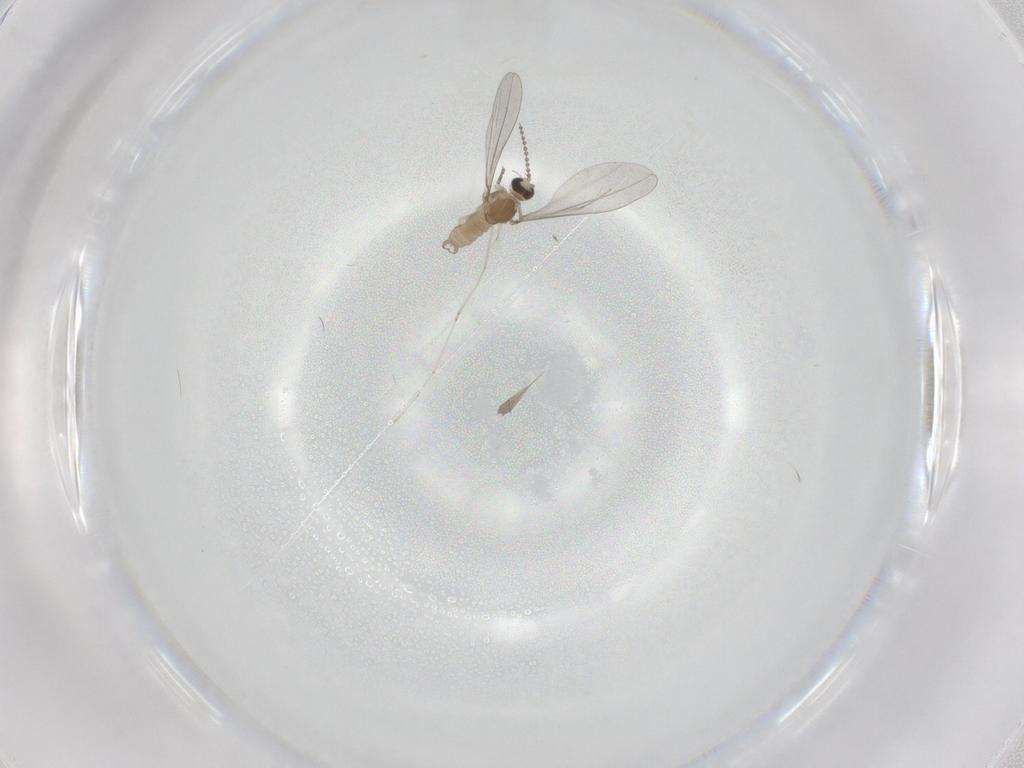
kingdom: Animalia
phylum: Arthropoda
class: Insecta
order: Diptera
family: Cecidomyiidae
